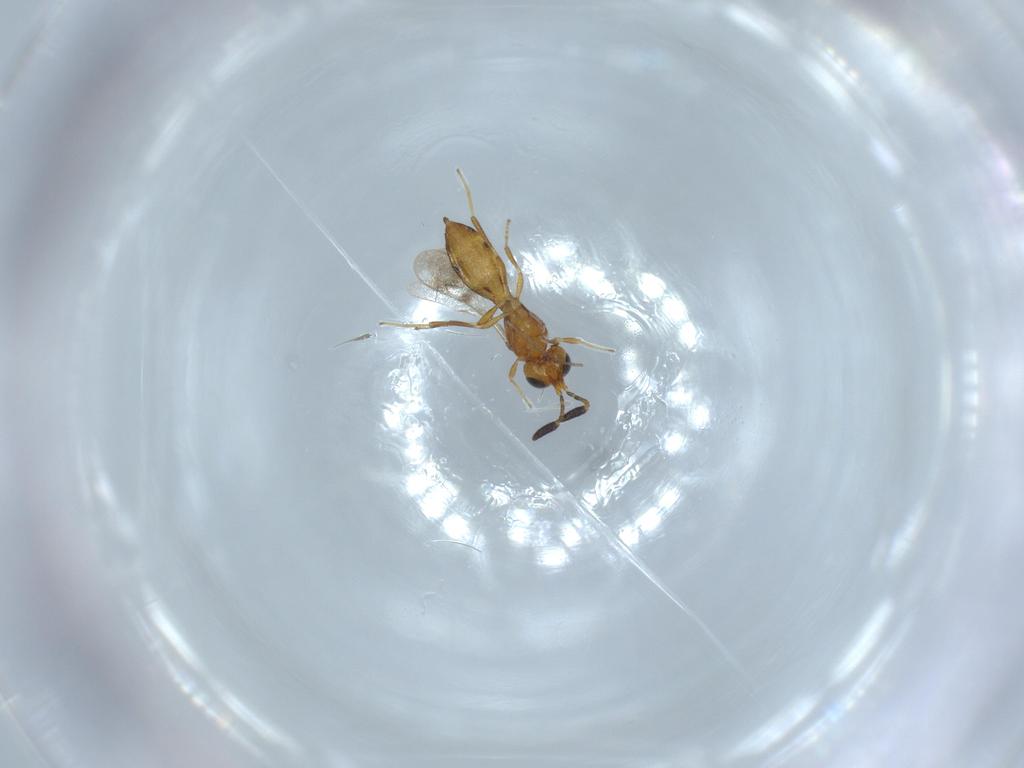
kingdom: Animalia
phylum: Arthropoda
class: Insecta
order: Hymenoptera
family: Scelionidae
